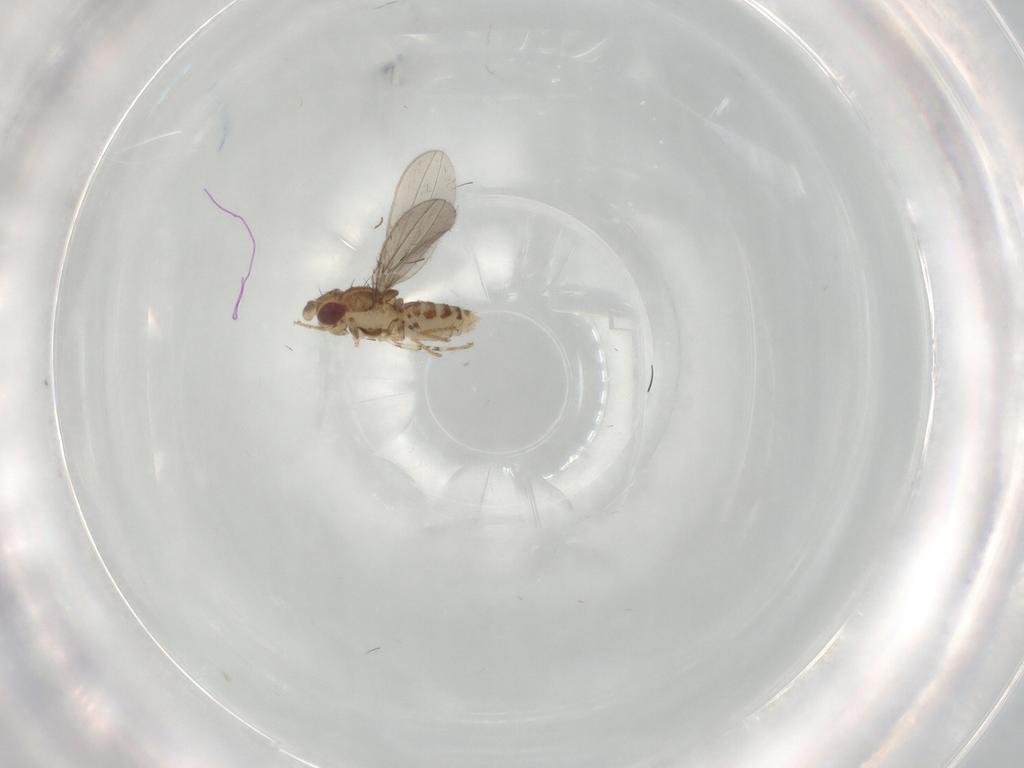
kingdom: Animalia
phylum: Arthropoda
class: Insecta
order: Diptera
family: Asteiidae
